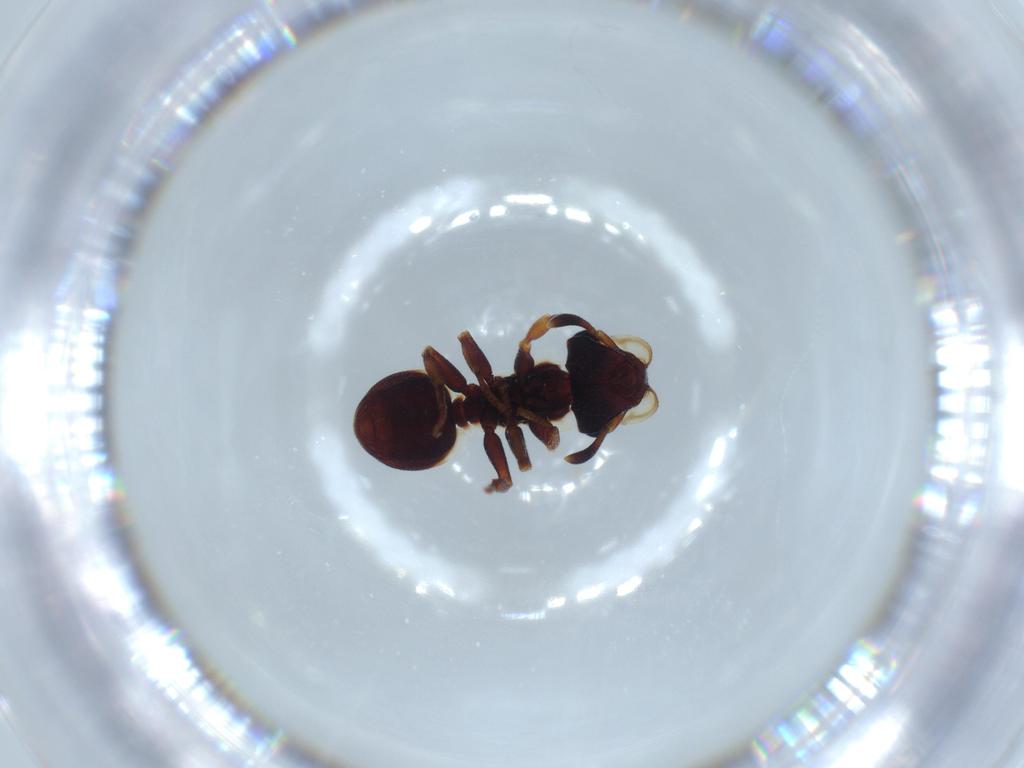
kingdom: Animalia
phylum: Arthropoda
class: Insecta
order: Hymenoptera
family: Formicidae
